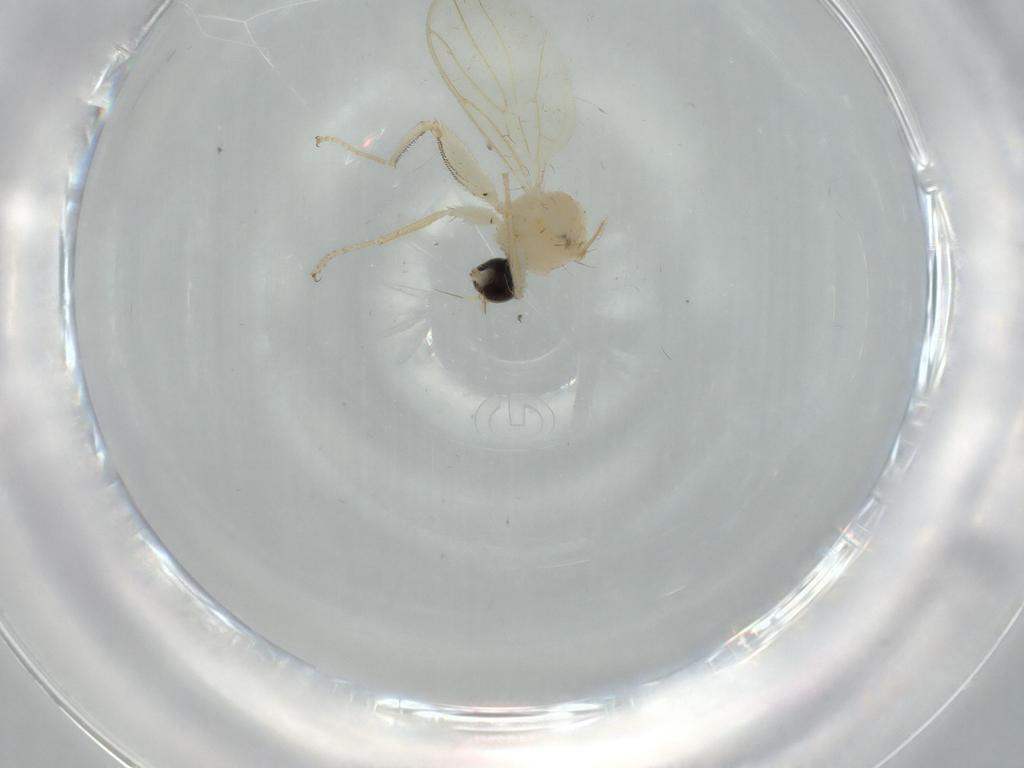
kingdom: Animalia
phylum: Arthropoda
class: Insecta
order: Diptera
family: Hybotidae
